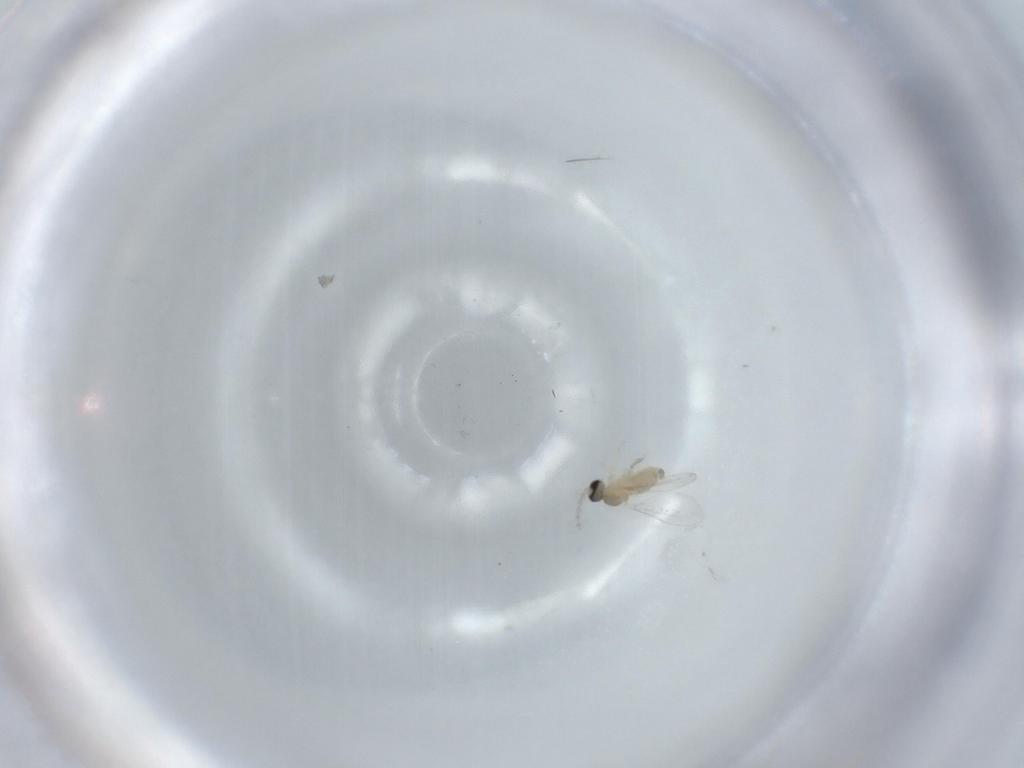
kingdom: Animalia
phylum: Arthropoda
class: Insecta
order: Diptera
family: Cecidomyiidae
